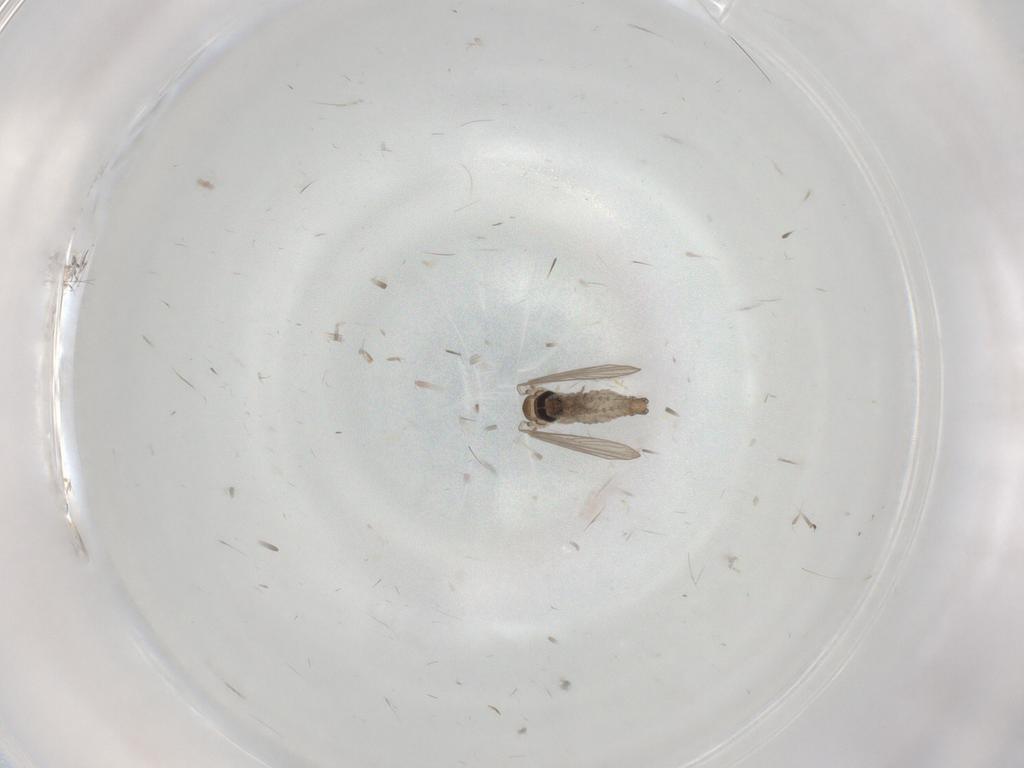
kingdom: Animalia
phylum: Arthropoda
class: Insecta
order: Diptera
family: Psychodidae
